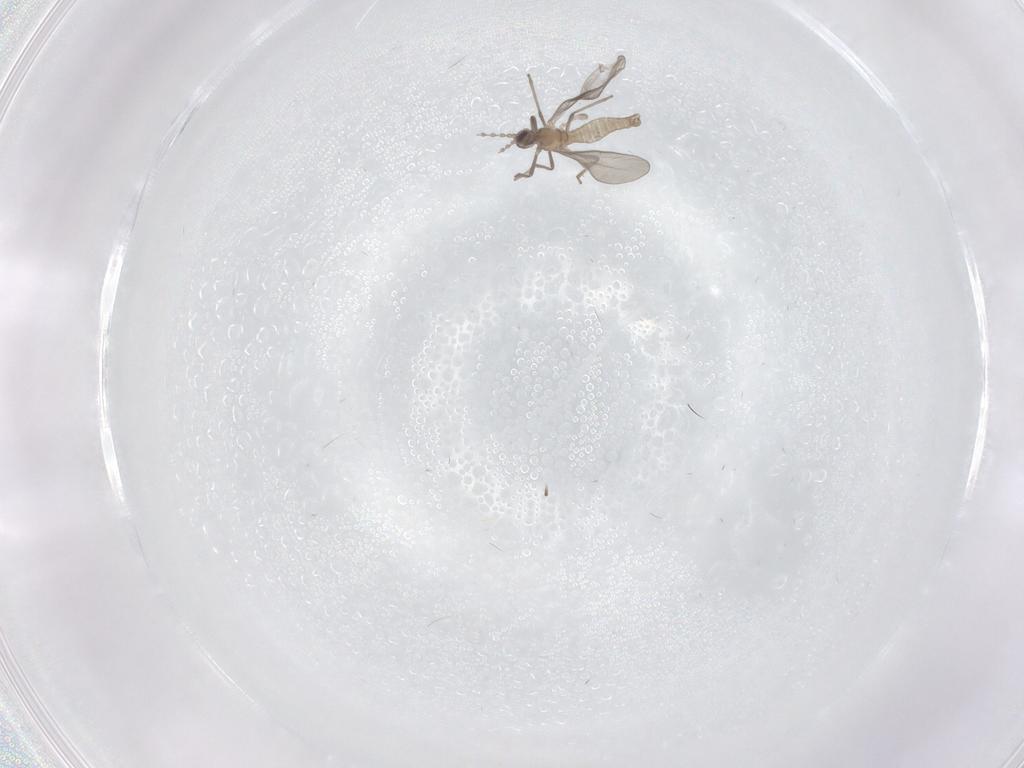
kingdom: Animalia
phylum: Arthropoda
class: Insecta
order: Diptera
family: Cecidomyiidae
